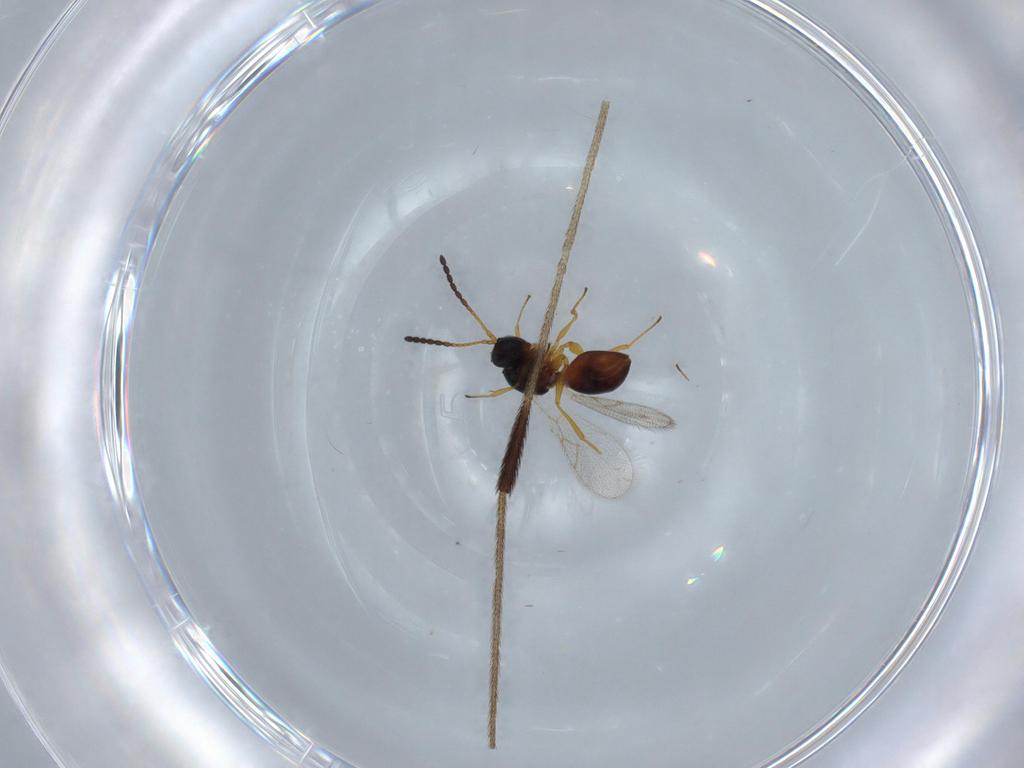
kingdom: Animalia
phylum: Arthropoda
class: Insecta
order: Hymenoptera
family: Figitidae
